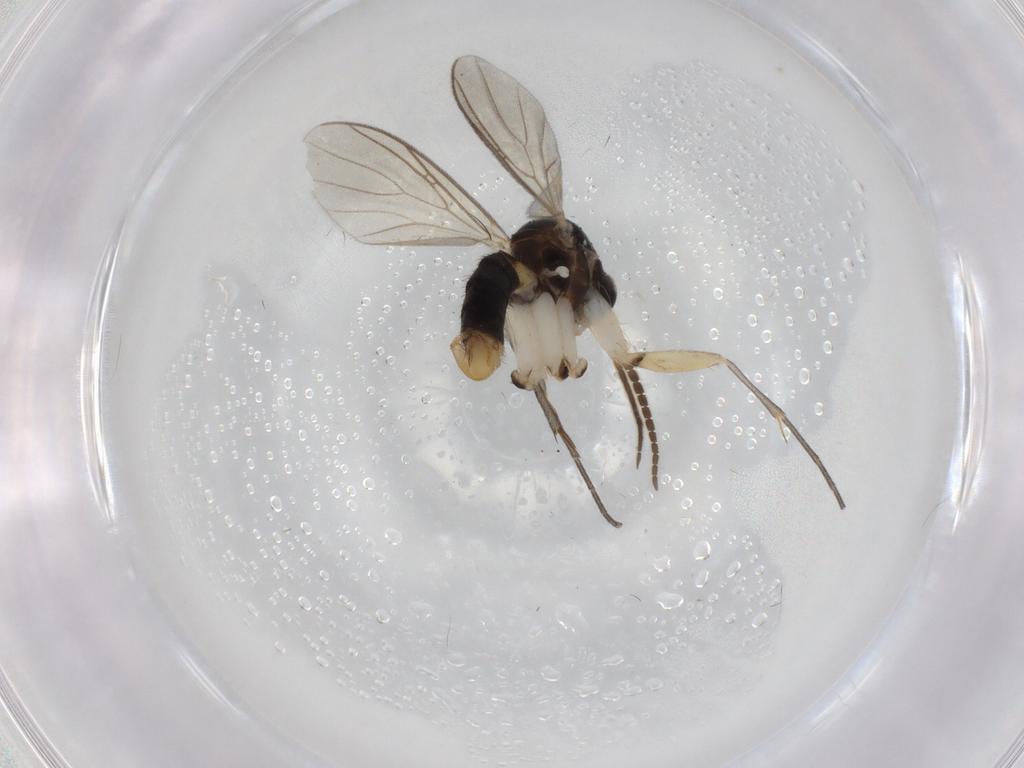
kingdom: Animalia
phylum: Arthropoda
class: Insecta
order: Diptera
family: Mycetophilidae
